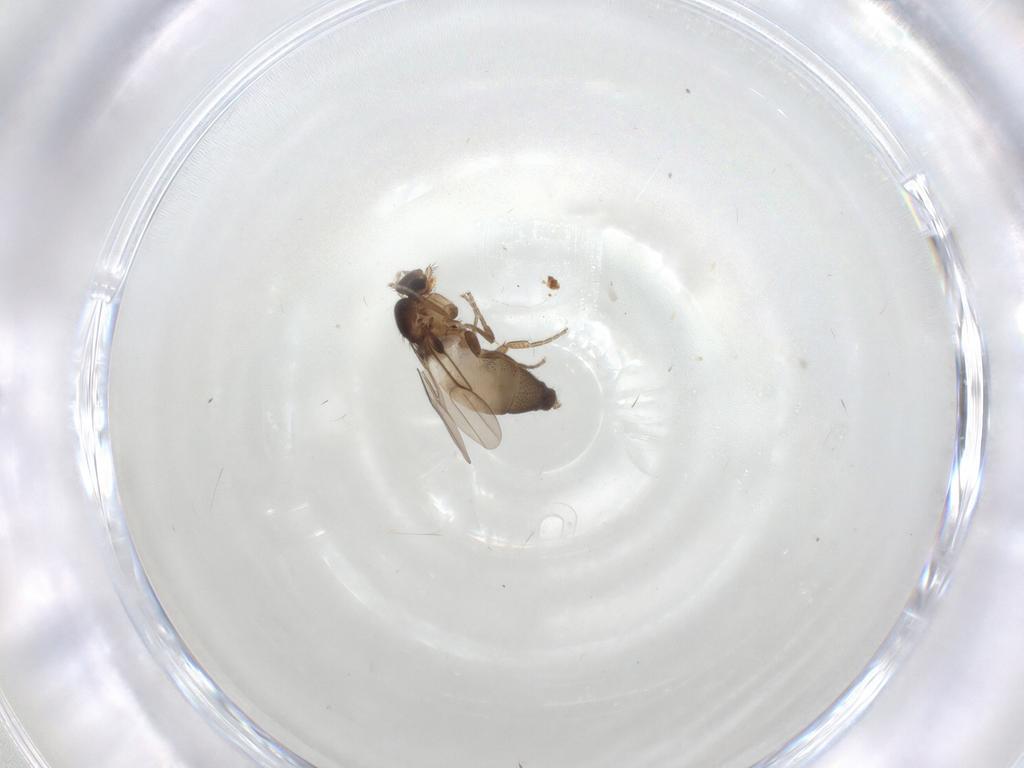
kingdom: Animalia
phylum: Arthropoda
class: Insecta
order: Diptera
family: Phoridae
